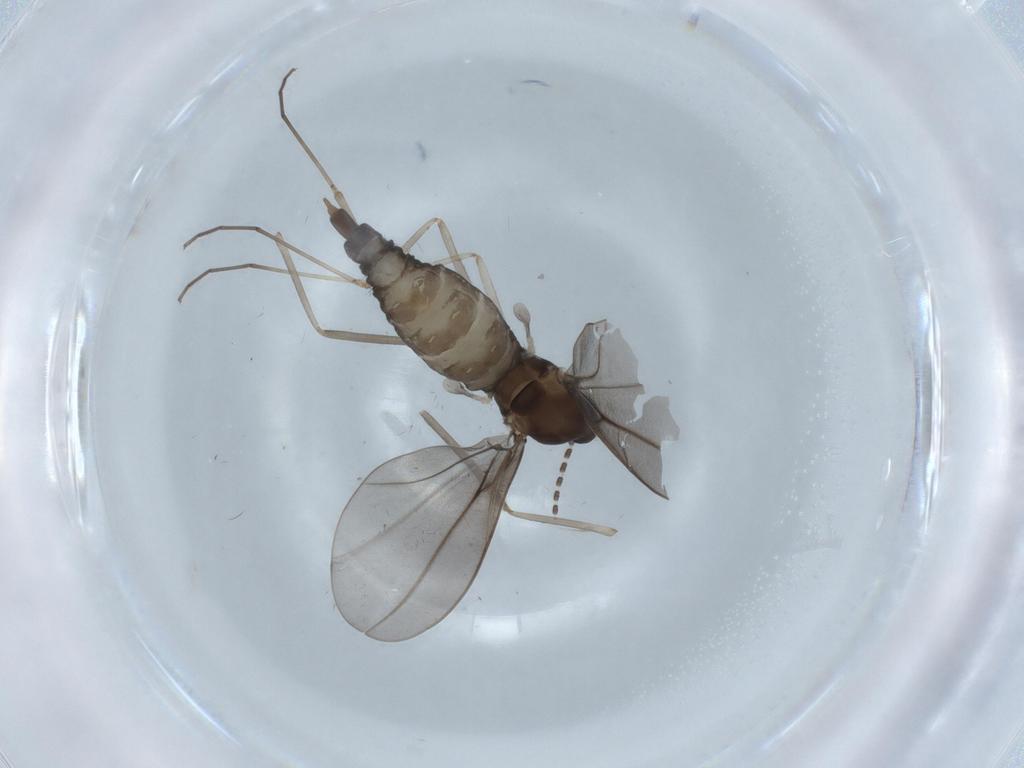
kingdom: Animalia
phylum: Arthropoda
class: Insecta
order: Diptera
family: Cecidomyiidae
